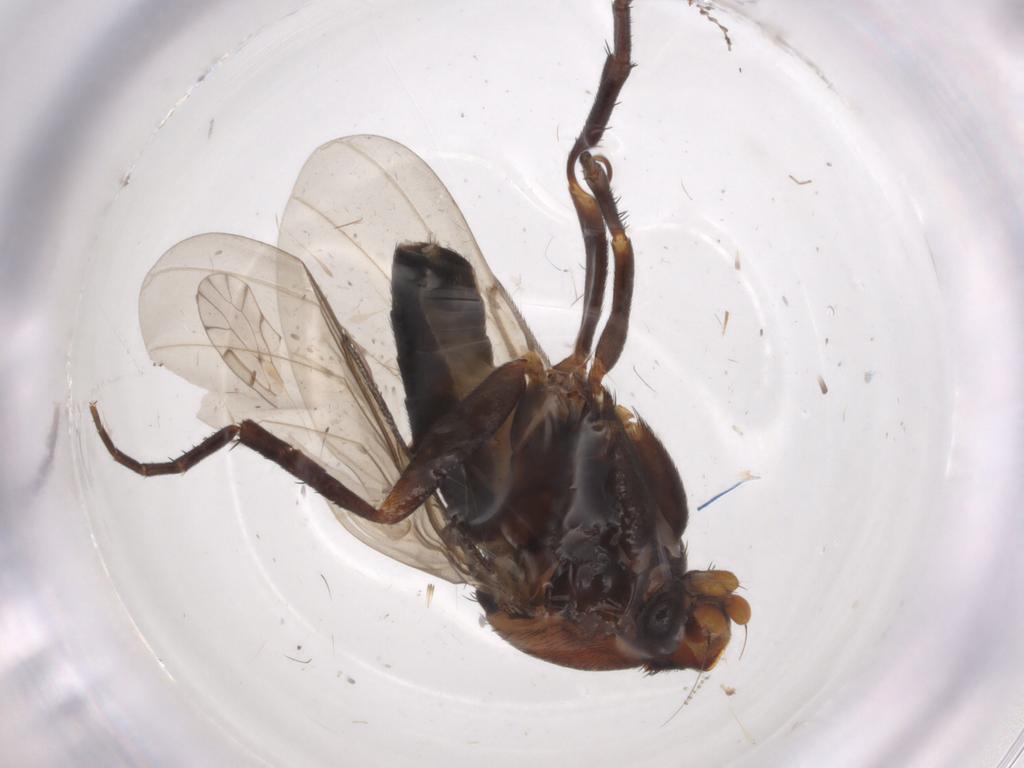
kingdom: Animalia
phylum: Arthropoda
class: Insecta
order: Diptera
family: Phoridae
